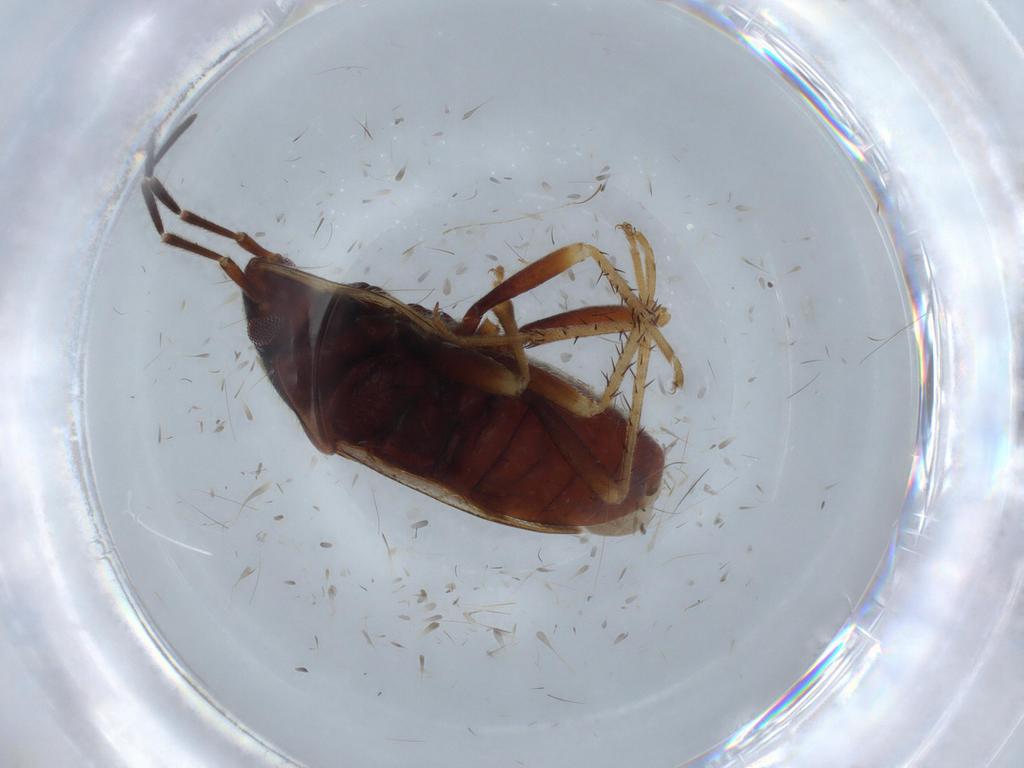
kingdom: Animalia
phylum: Arthropoda
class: Insecta
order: Hemiptera
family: Rhyparochromidae
